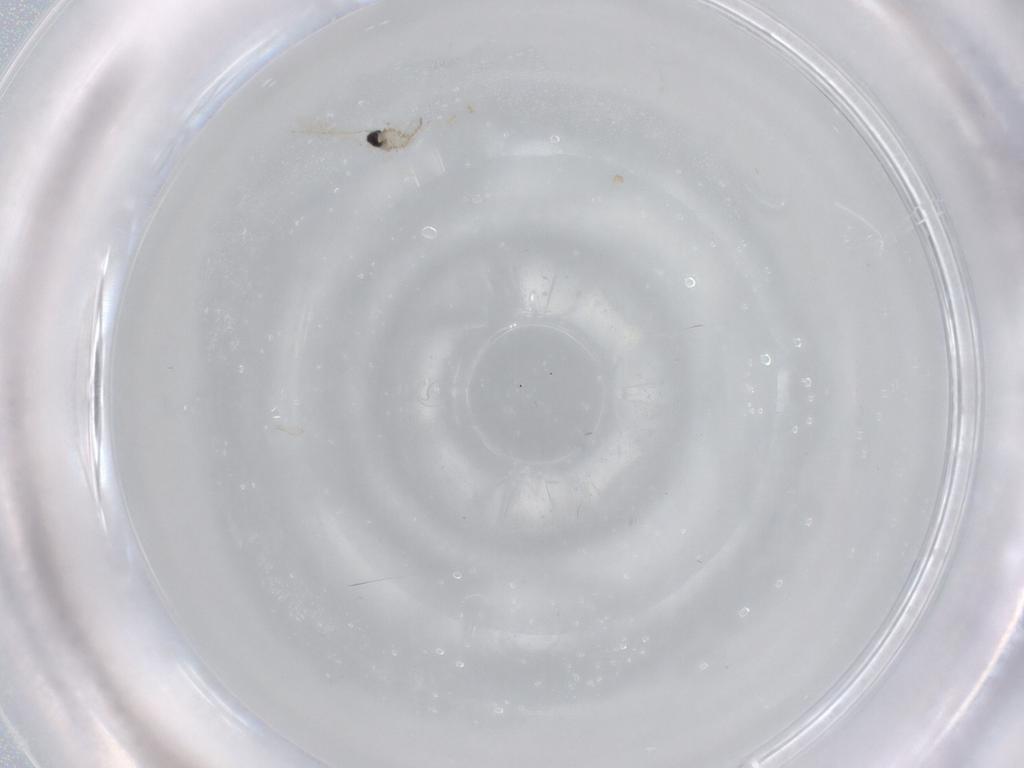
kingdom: Animalia
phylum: Arthropoda
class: Insecta
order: Diptera
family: Cecidomyiidae
